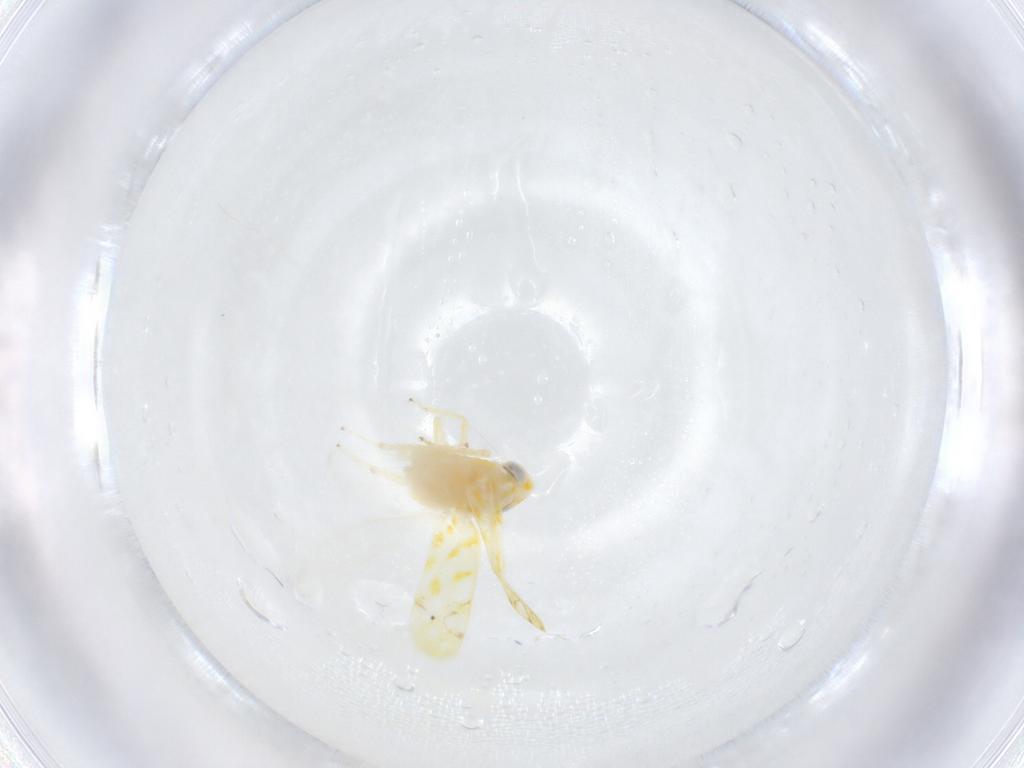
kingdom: Animalia
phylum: Arthropoda
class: Insecta
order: Hemiptera
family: Cicadellidae
